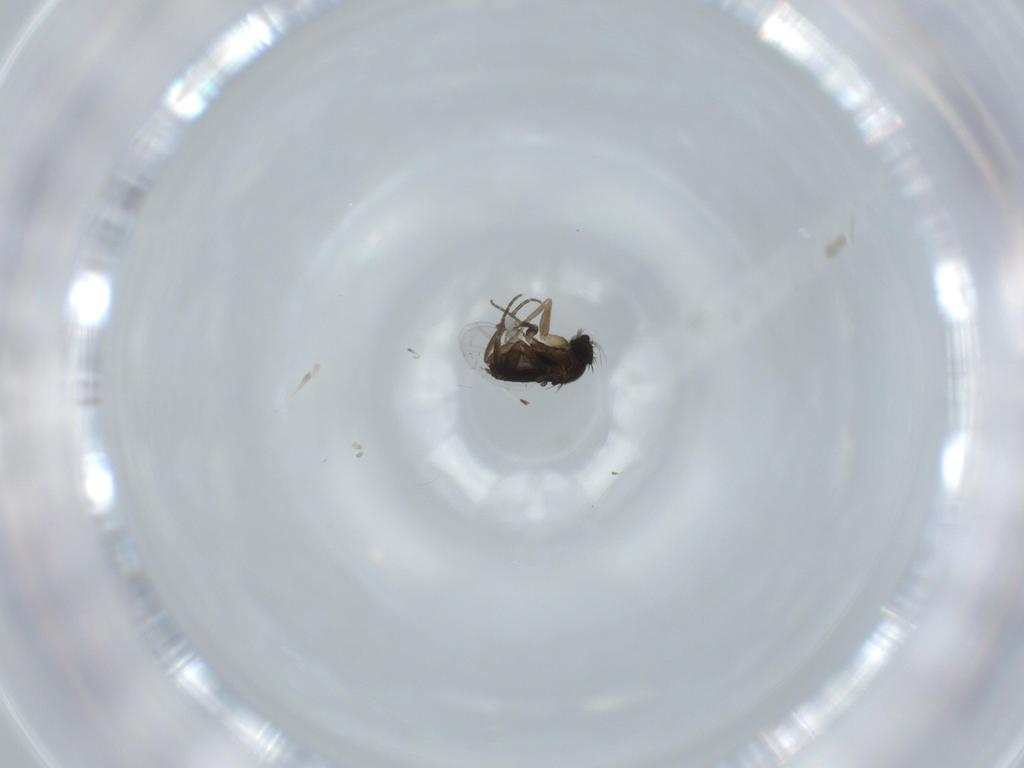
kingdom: Animalia
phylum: Arthropoda
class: Insecta
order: Diptera
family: Phoridae
